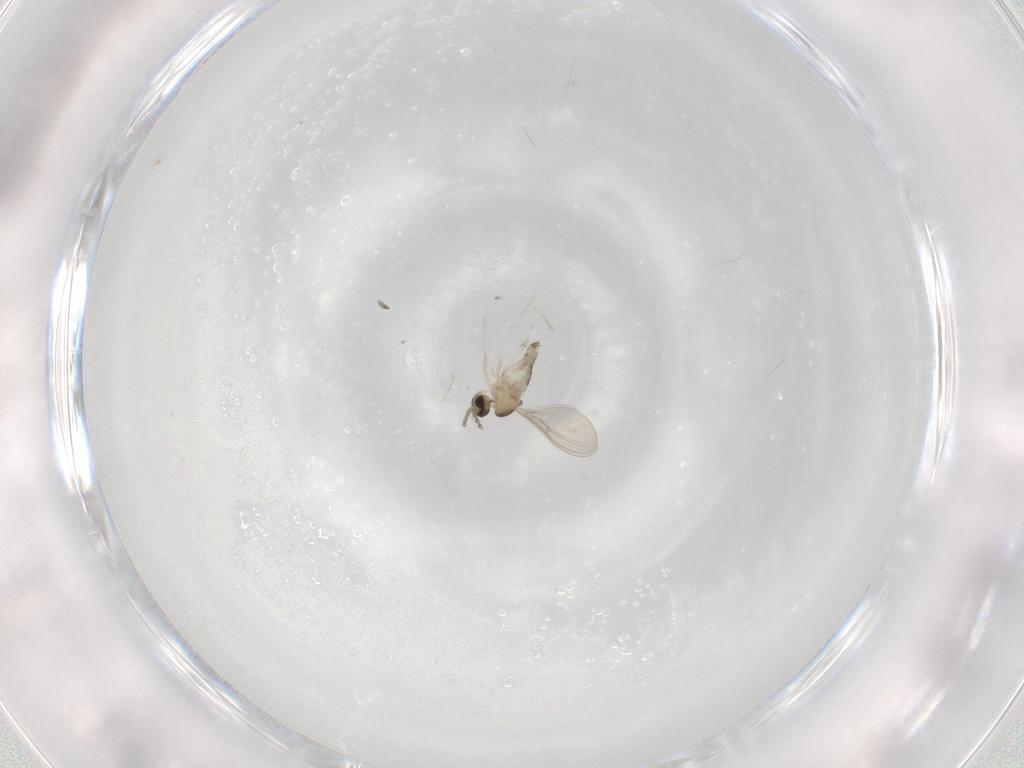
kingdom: Animalia
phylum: Arthropoda
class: Insecta
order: Diptera
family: Cecidomyiidae
